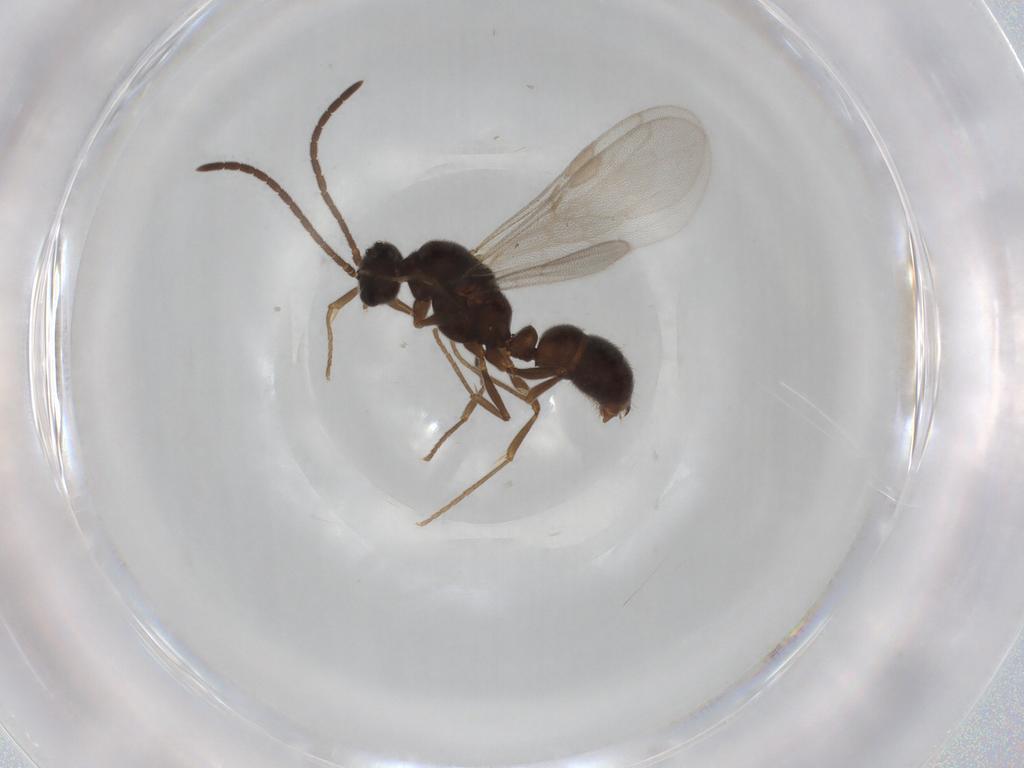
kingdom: Animalia
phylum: Arthropoda
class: Insecta
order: Hymenoptera
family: Formicidae
